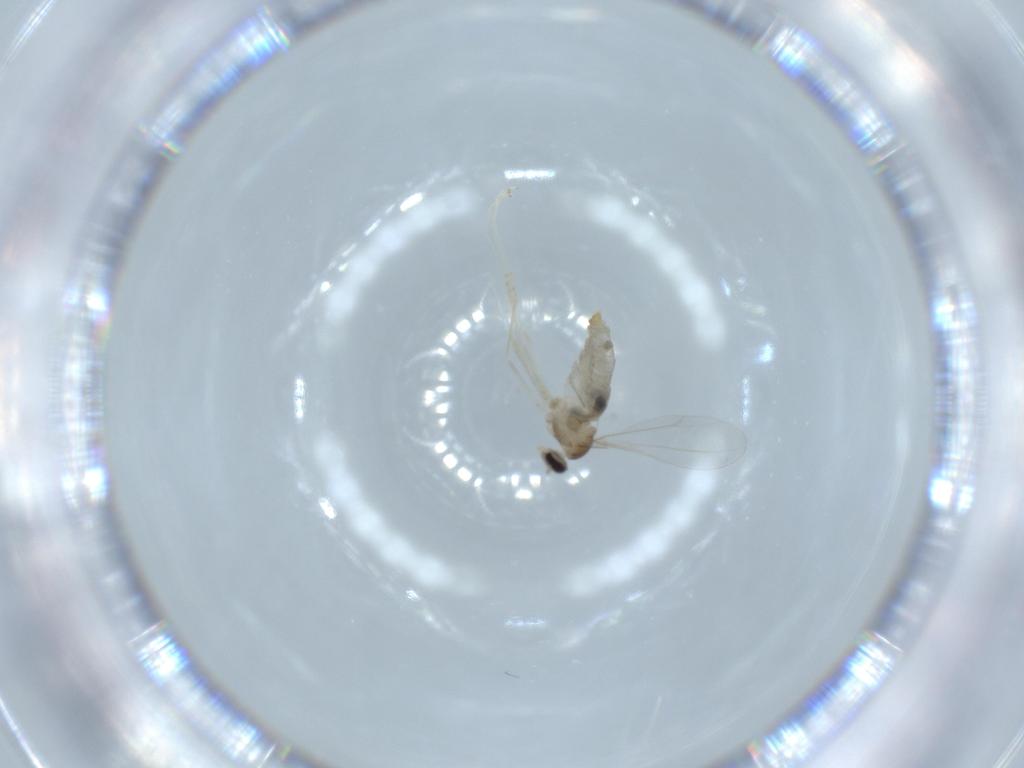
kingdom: Animalia
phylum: Arthropoda
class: Insecta
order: Diptera
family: Cecidomyiidae
